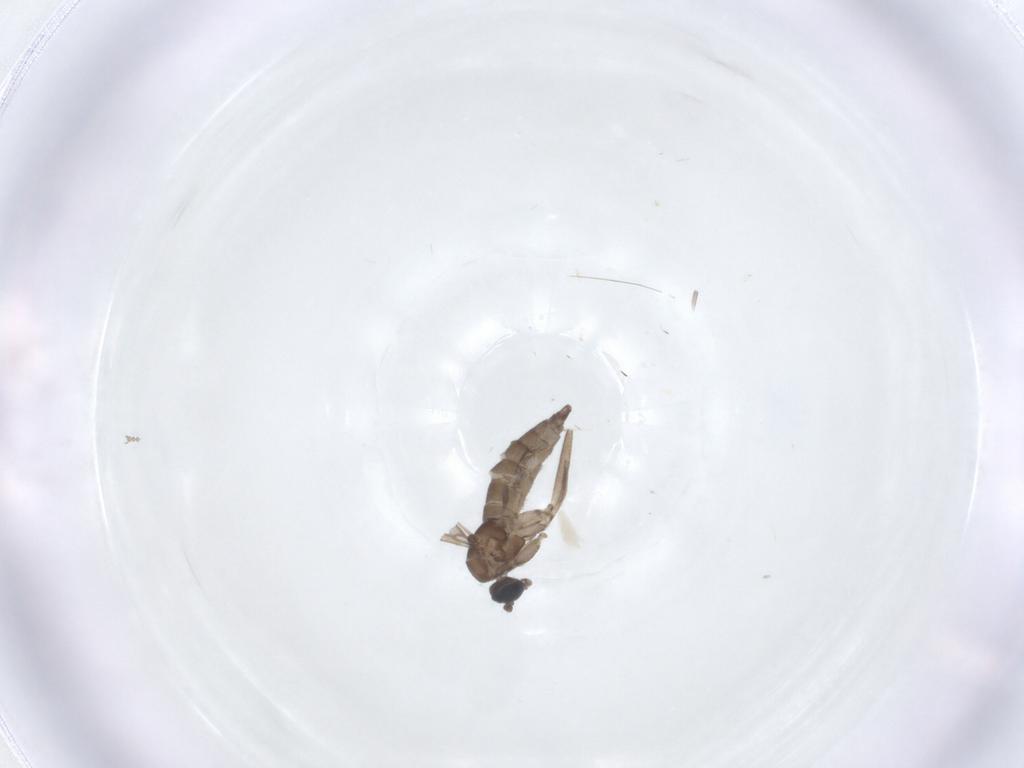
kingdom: Animalia
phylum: Arthropoda
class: Insecta
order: Diptera
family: Sciaridae
